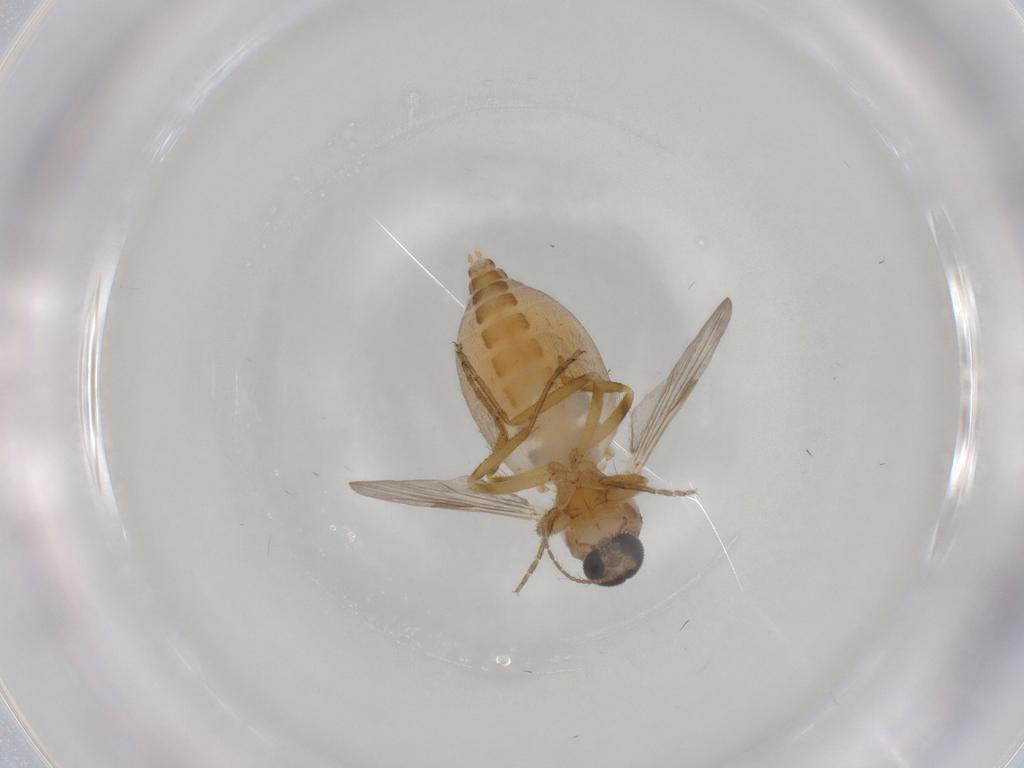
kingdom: Animalia
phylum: Arthropoda
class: Insecta
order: Diptera
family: Ceratopogonidae
